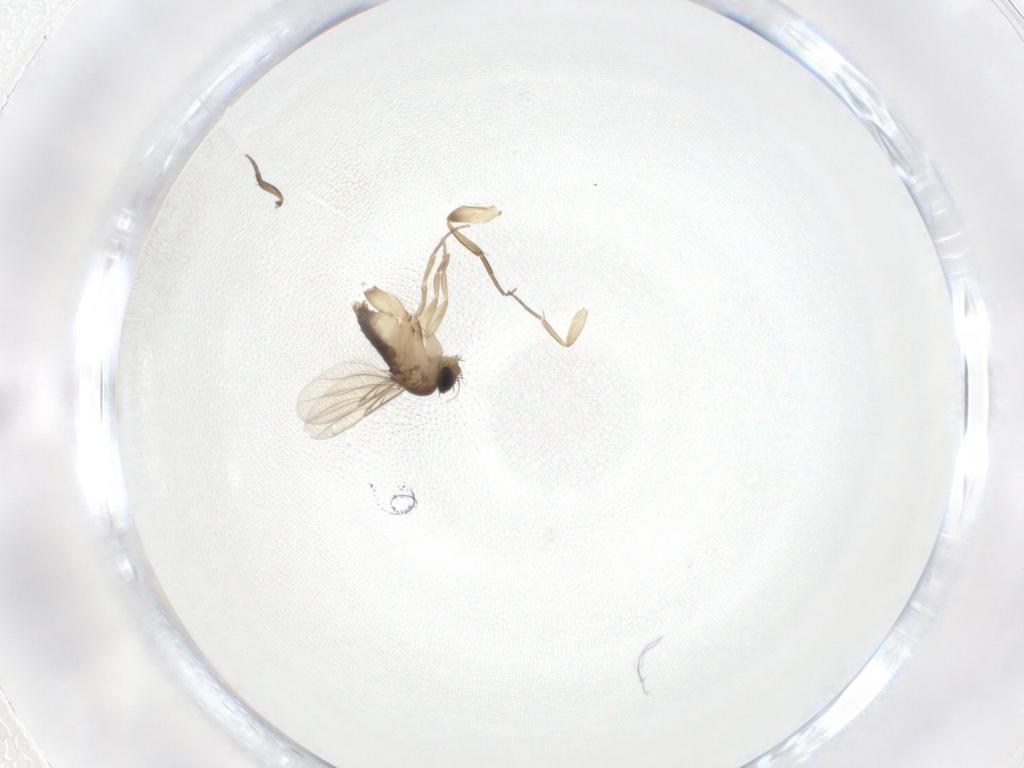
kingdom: Animalia
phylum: Arthropoda
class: Insecta
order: Diptera
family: Phoridae
